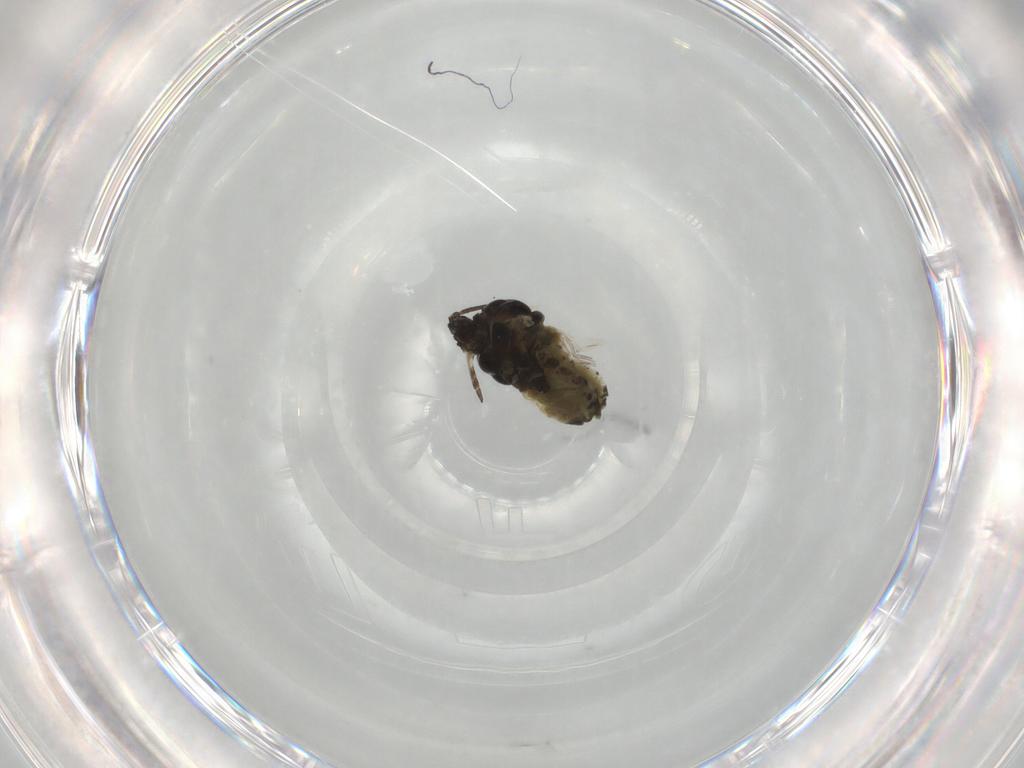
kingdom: Animalia
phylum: Arthropoda
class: Insecta
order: Hemiptera
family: Aphididae
